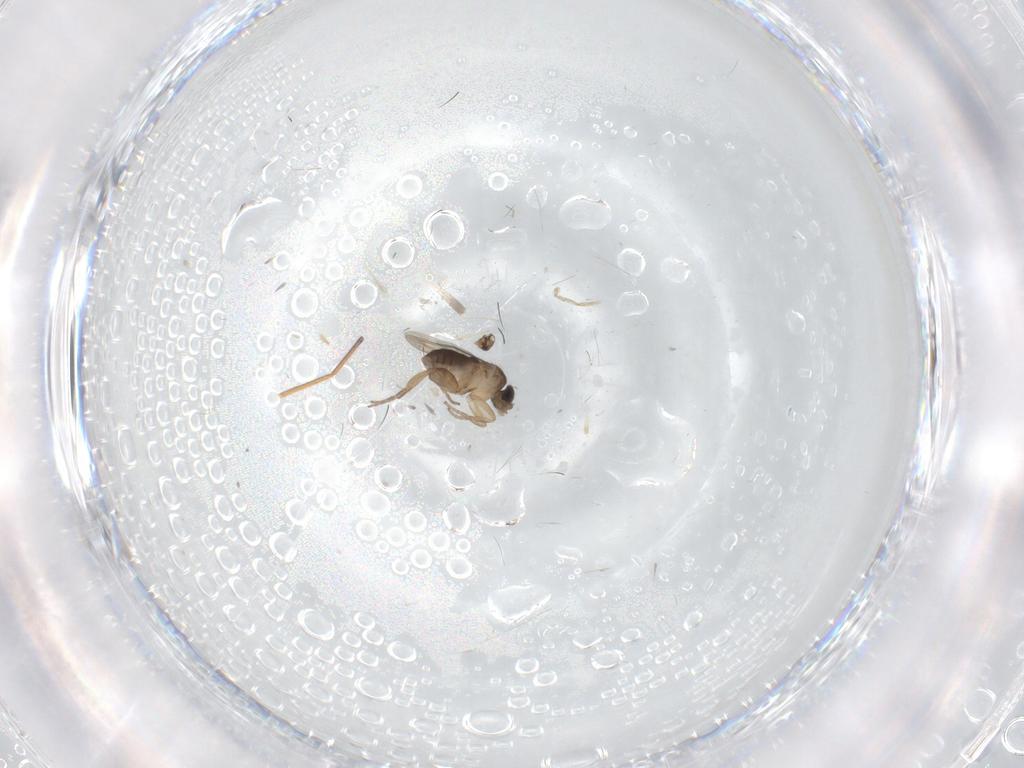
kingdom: Animalia
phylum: Arthropoda
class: Insecta
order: Diptera
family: Phoridae
